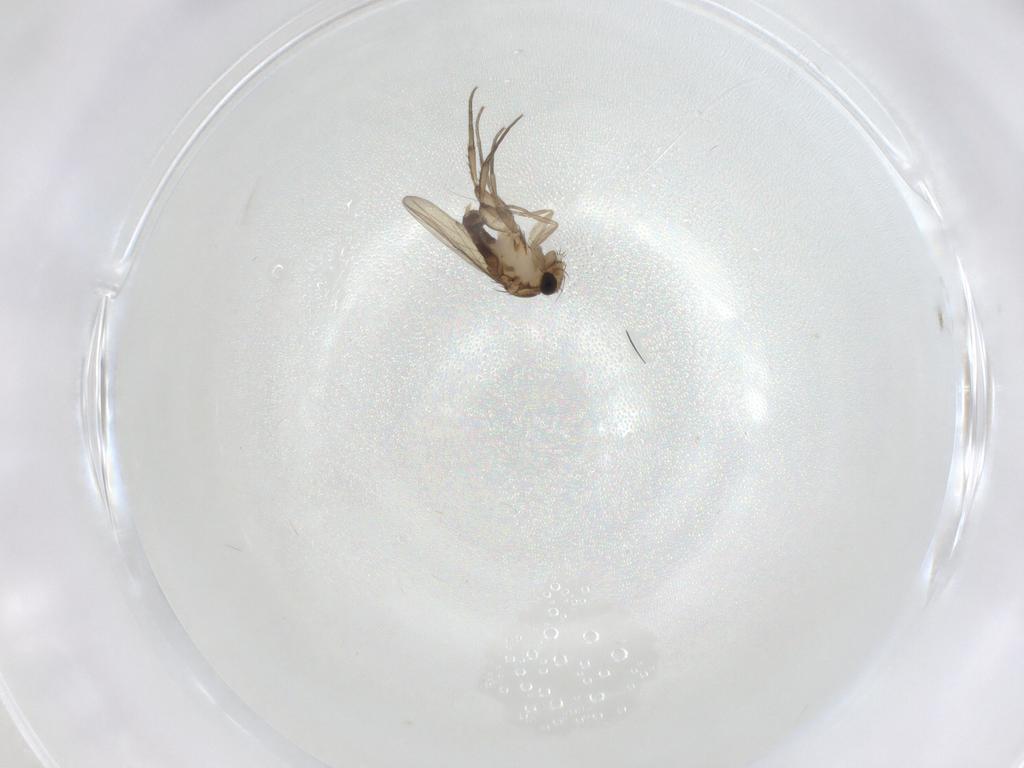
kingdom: Animalia
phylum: Arthropoda
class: Insecta
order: Diptera
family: Phoridae
